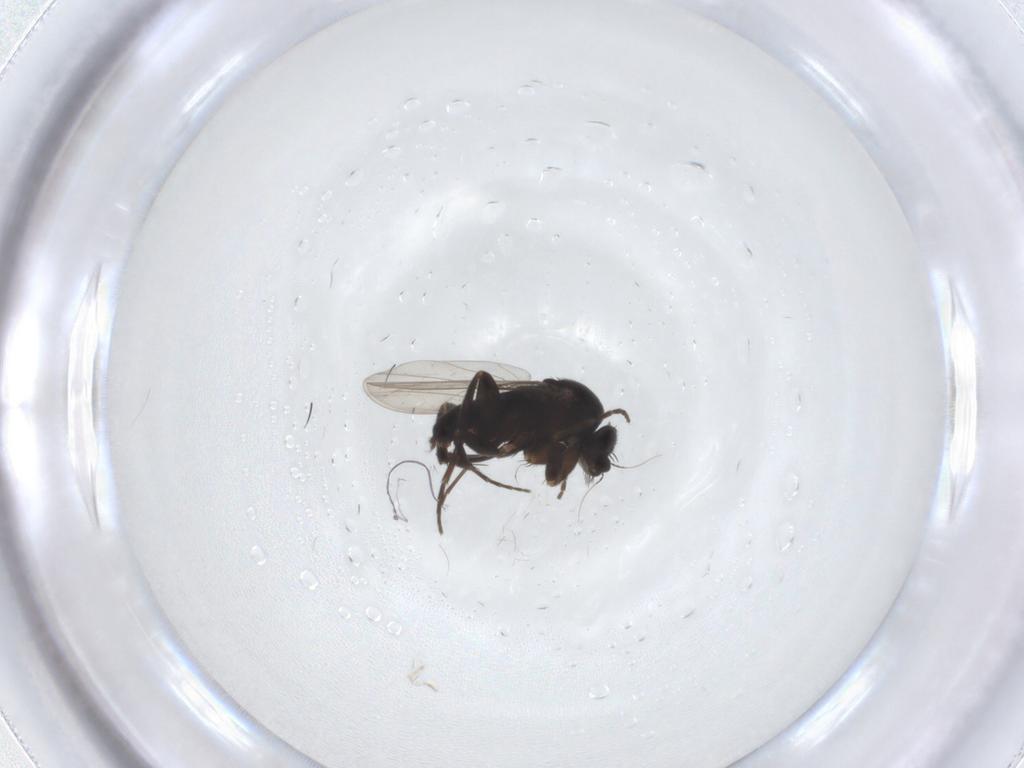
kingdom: Animalia
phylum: Arthropoda
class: Insecta
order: Diptera
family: Phoridae
